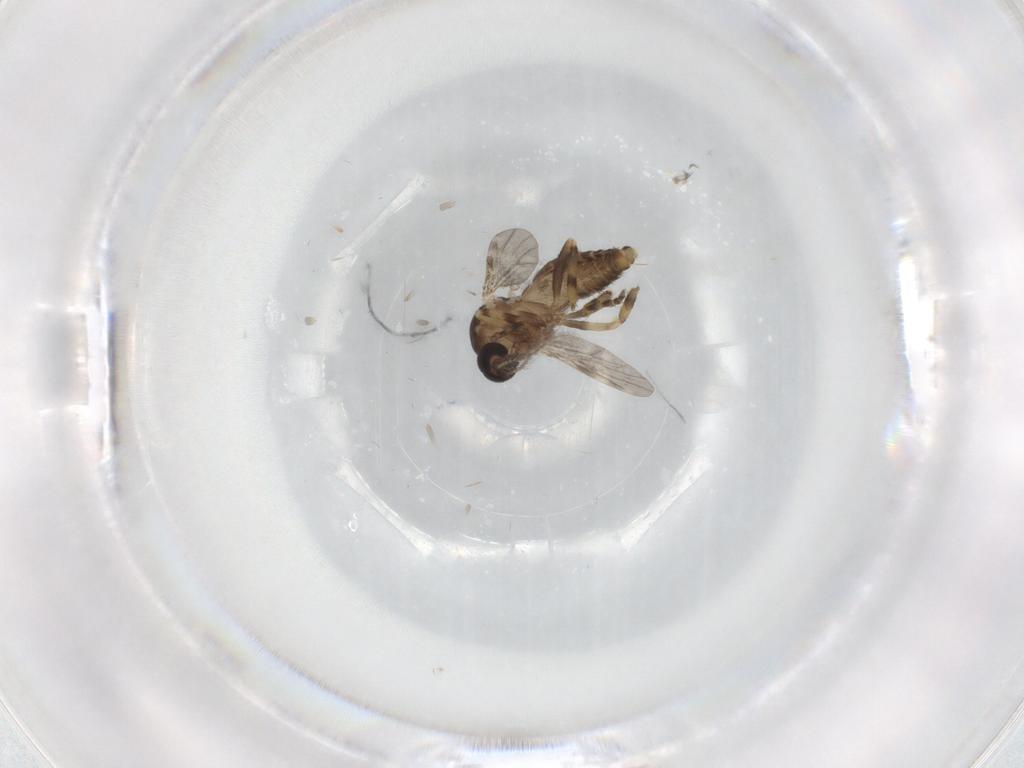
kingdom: Animalia
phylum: Arthropoda
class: Insecta
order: Diptera
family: Ceratopogonidae
